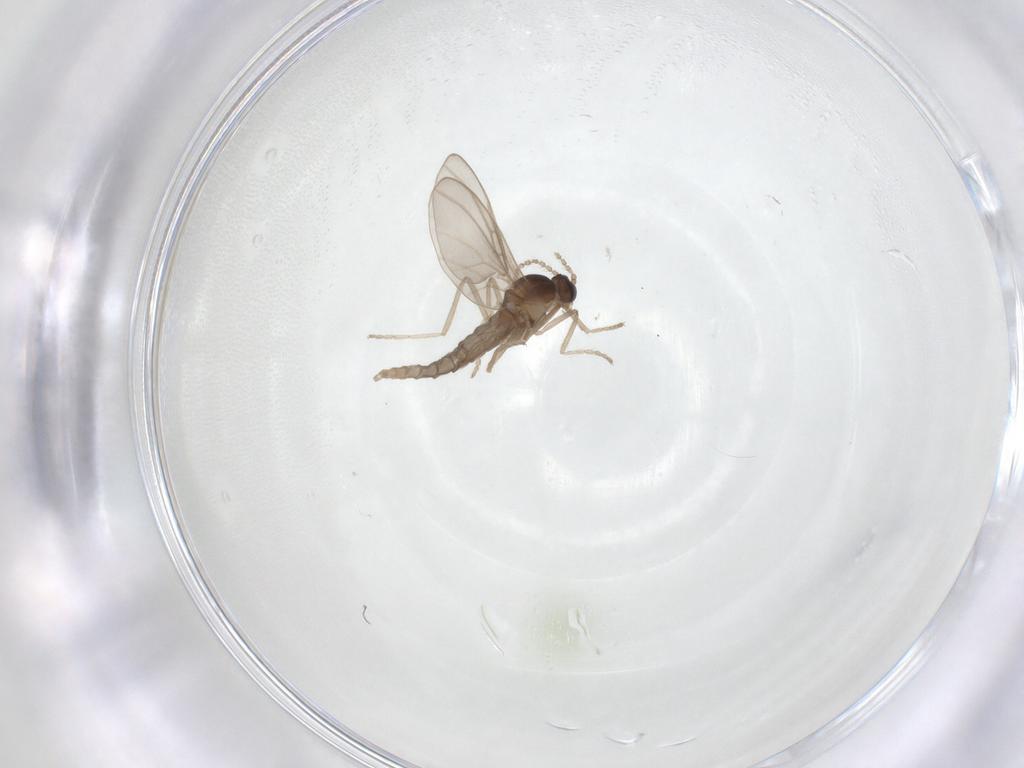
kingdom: Animalia
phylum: Arthropoda
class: Insecta
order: Diptera
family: Cecidomyiidae
